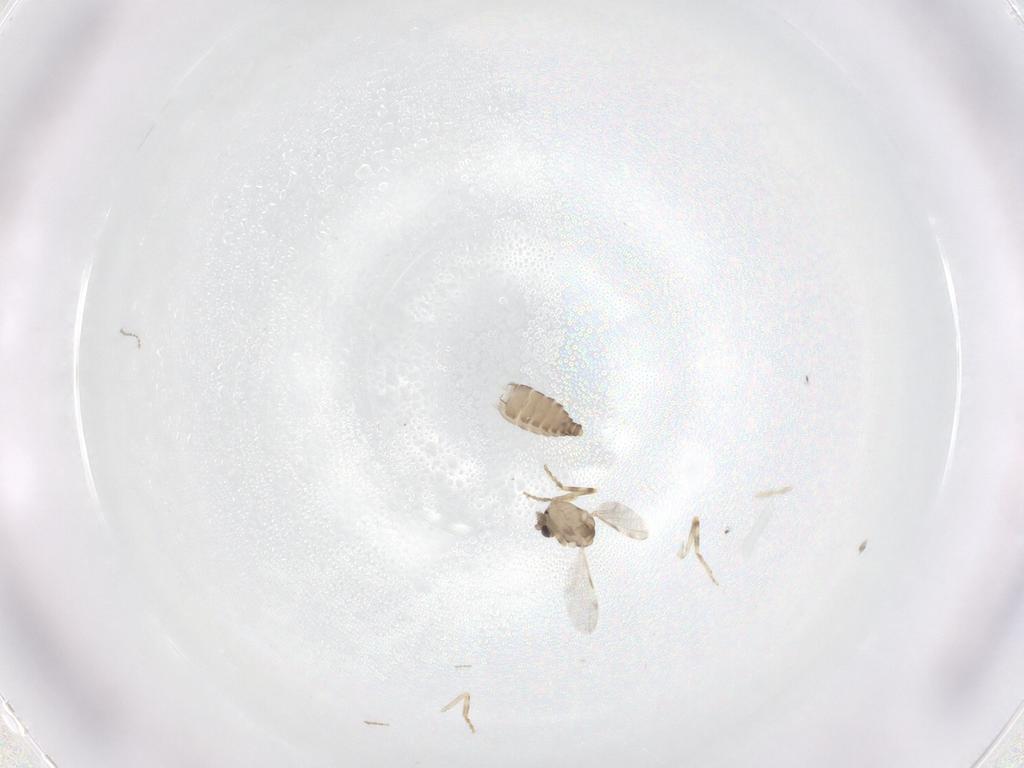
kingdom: Animalia
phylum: Arthropoda
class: Insecta
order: Diptera
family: Ceratopogonidae
